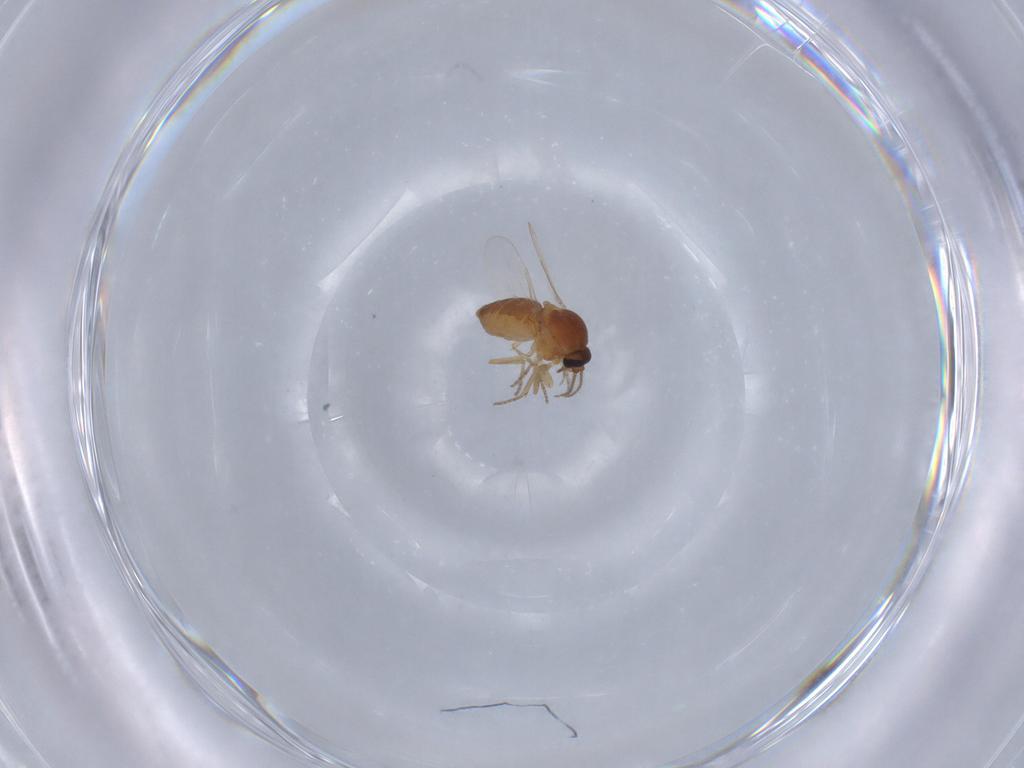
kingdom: Animalia
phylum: Arthropoda
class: Insecta
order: Diptera
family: Ceratopogonidae
